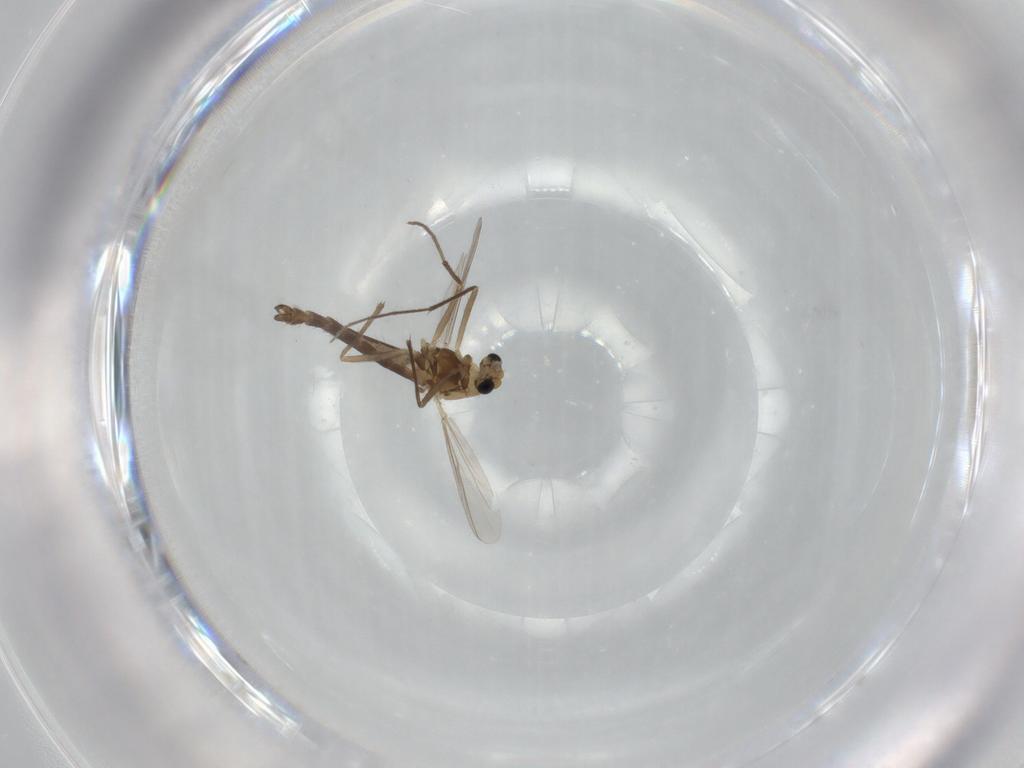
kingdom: Animalia
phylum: Arthropoda
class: Insecta
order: Diptera
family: Chironomidae
